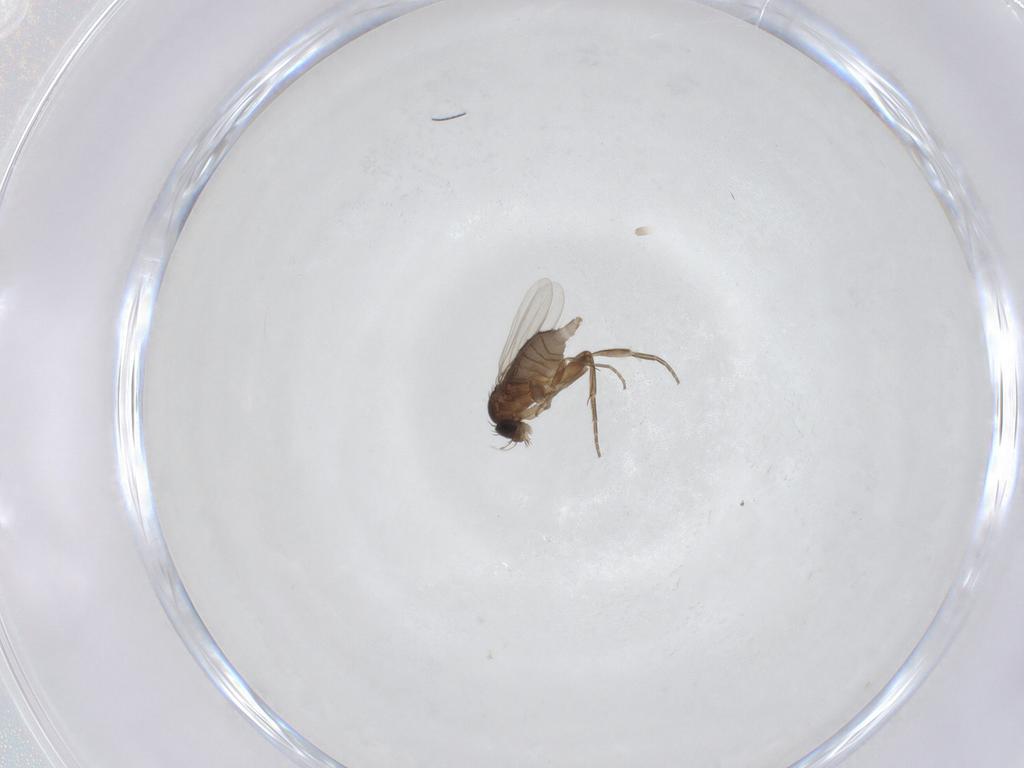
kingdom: Animalia
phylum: Arthropoda
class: Insecta
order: Diptera
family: Phoridae
